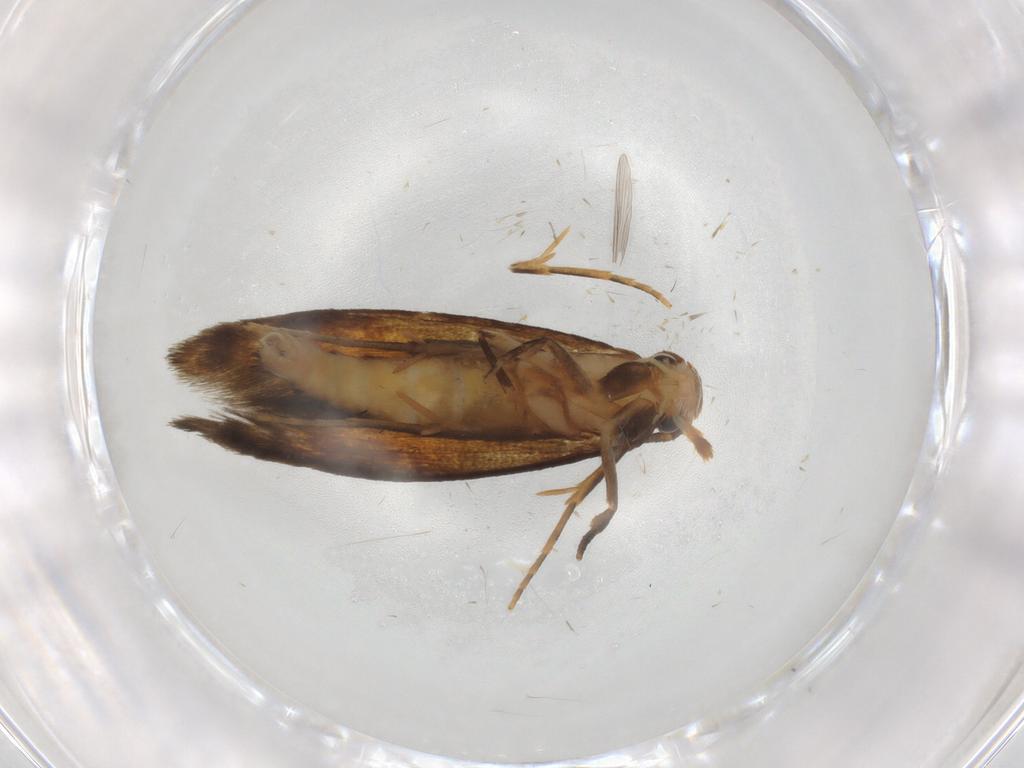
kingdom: Animalia
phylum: Arthropoda
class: Insecta
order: Lepidoptera
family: Tineidae
